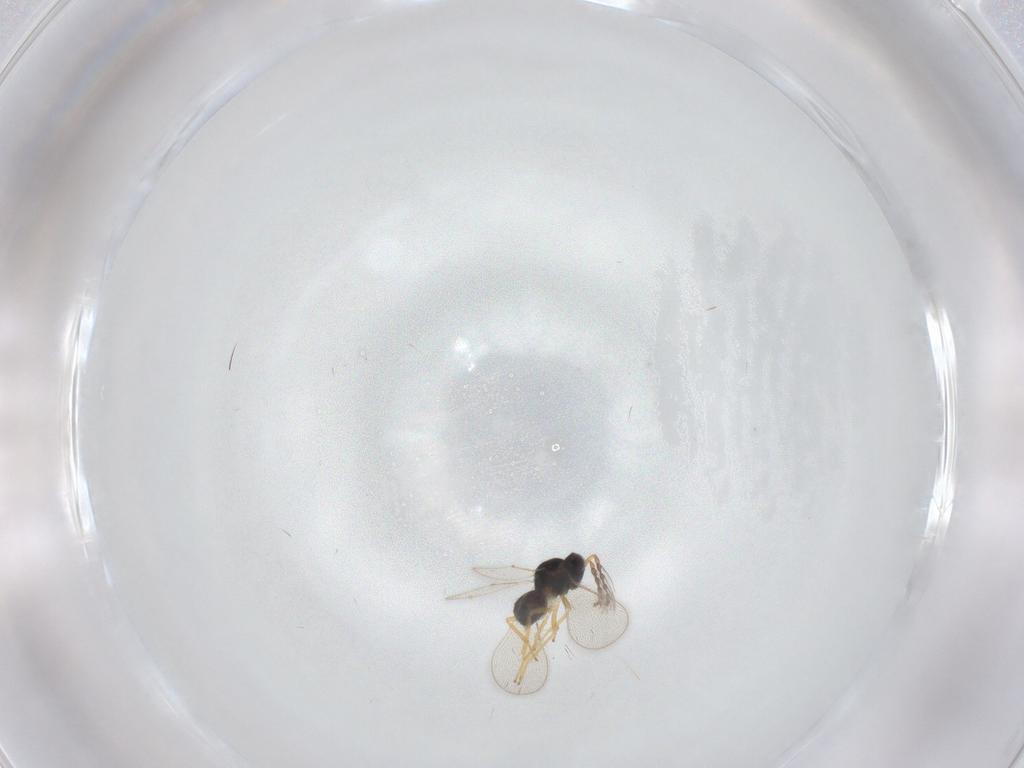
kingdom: Animalia
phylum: Arthropoda
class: Insecta
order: Hymenoptera
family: Eulophidae
